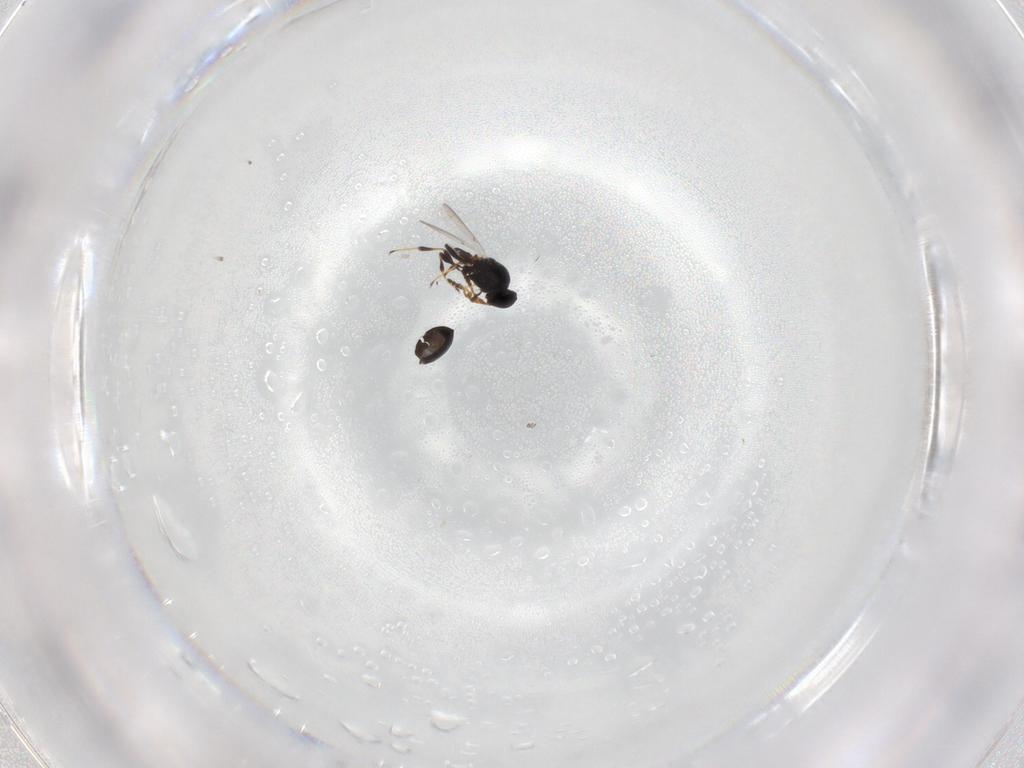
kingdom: Animalia
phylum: Arthropoda
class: Insecta
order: Hymenoptera
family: Platygastridae
